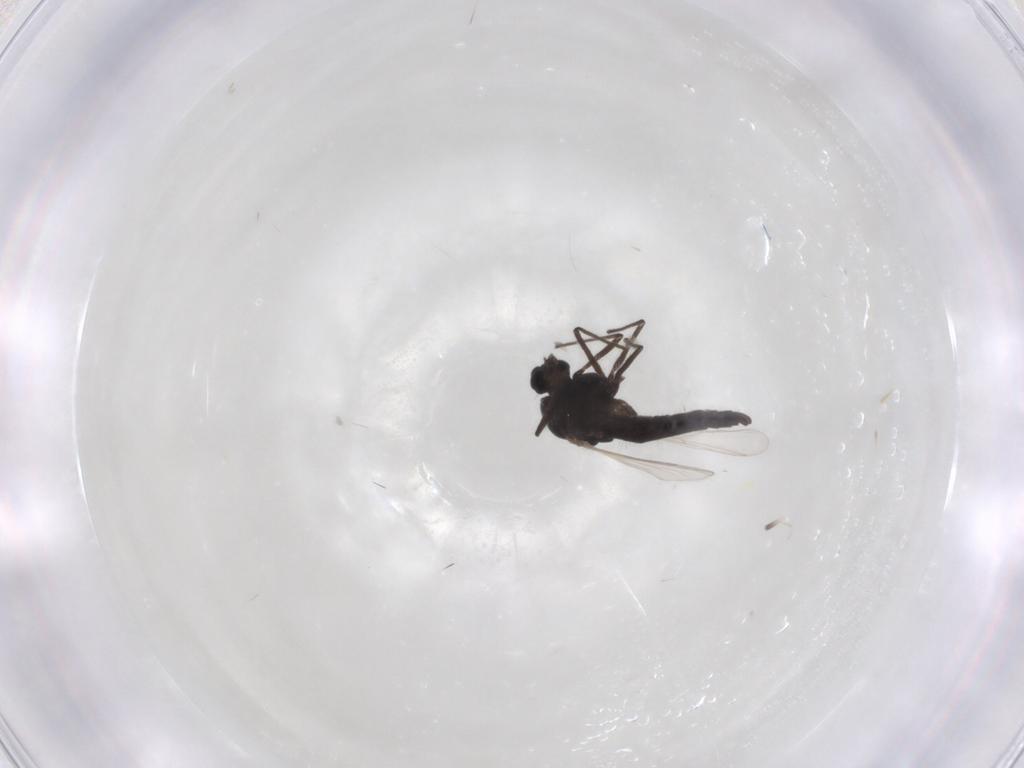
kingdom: Animalia
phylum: Arthropoda
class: Insecta
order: Diptera
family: Chironomidae
